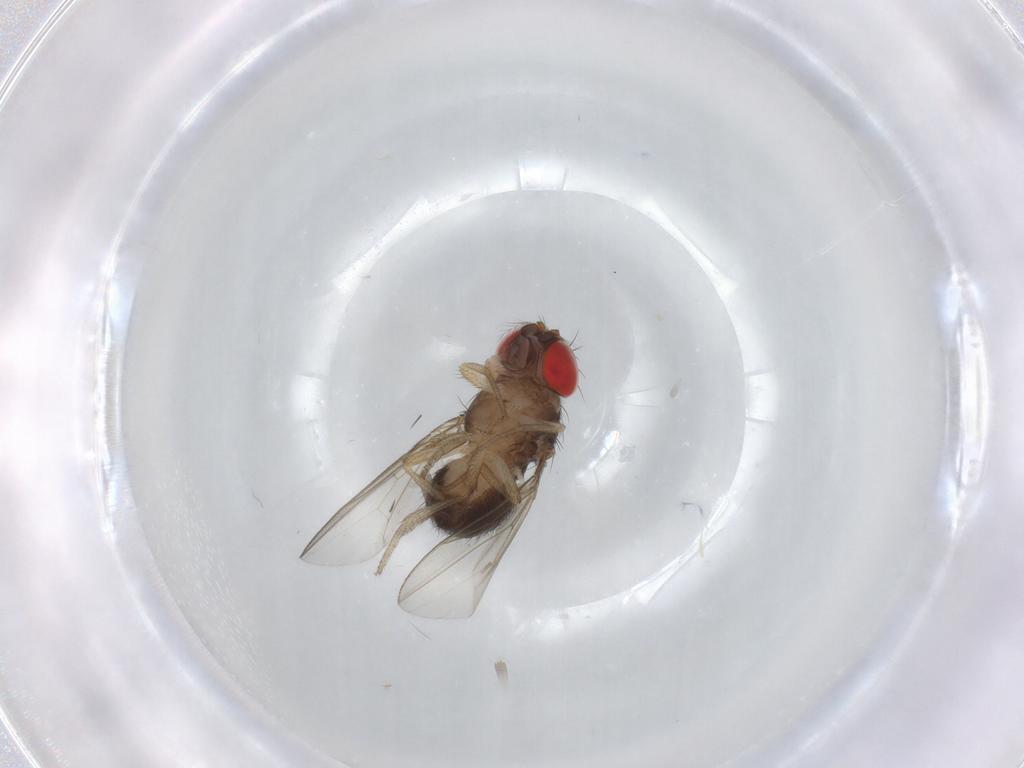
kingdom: Animalia
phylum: Arthropoda
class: Insecta
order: Diptera
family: Drosophilidae
